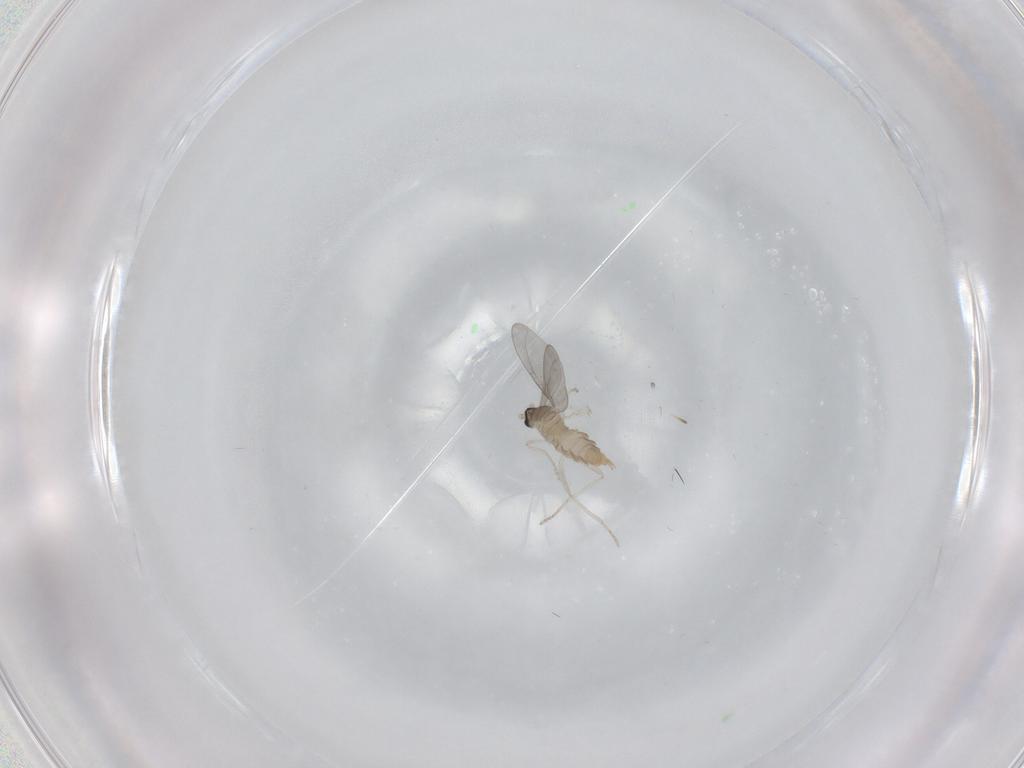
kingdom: Animalia
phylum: Arthropoda
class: Insecta
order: Diptera
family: Cecidomyiidae
